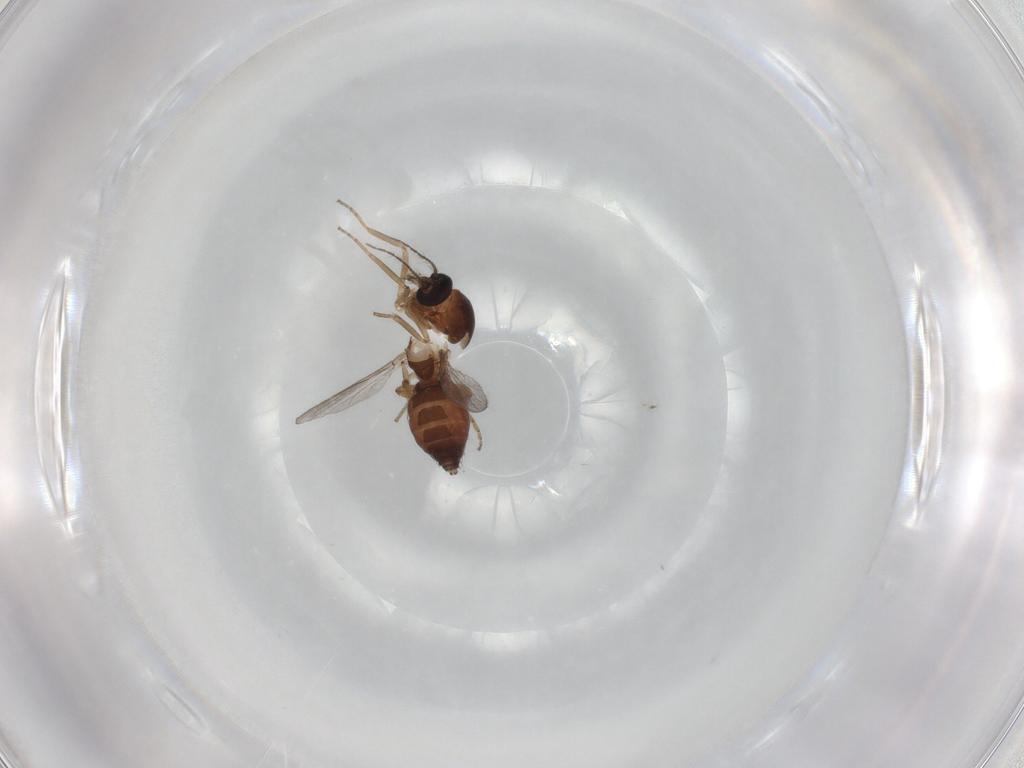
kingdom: Animalia
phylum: Arthropoda
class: Insecta
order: Diptera
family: Ceratopogonidae
